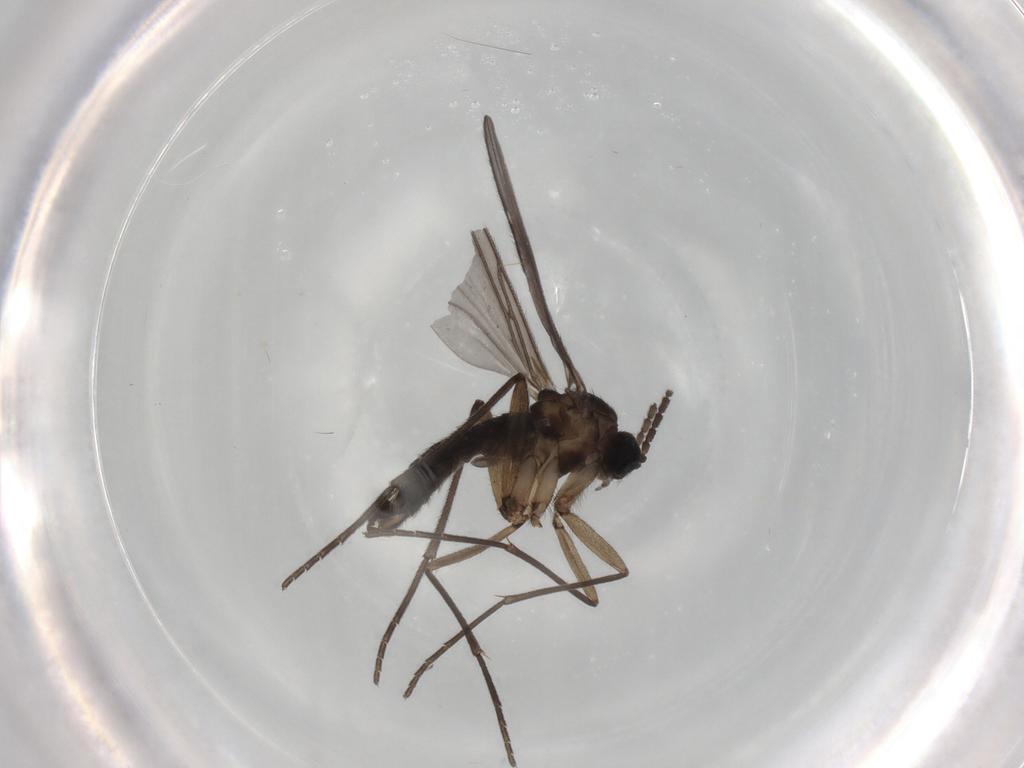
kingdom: Animalia
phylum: Arthropoda
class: Insecta
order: Diptera
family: Sciaridae
